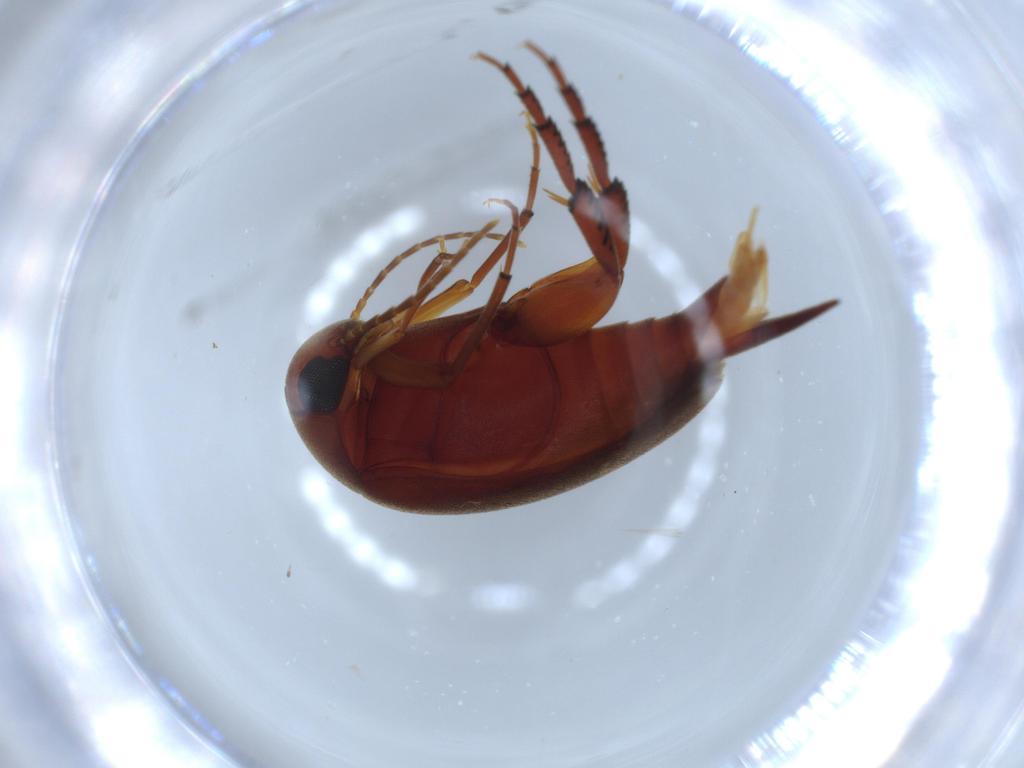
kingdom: Animalia
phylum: Arthropoda
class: Insecta
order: Coleoptera
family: Mordellidae
